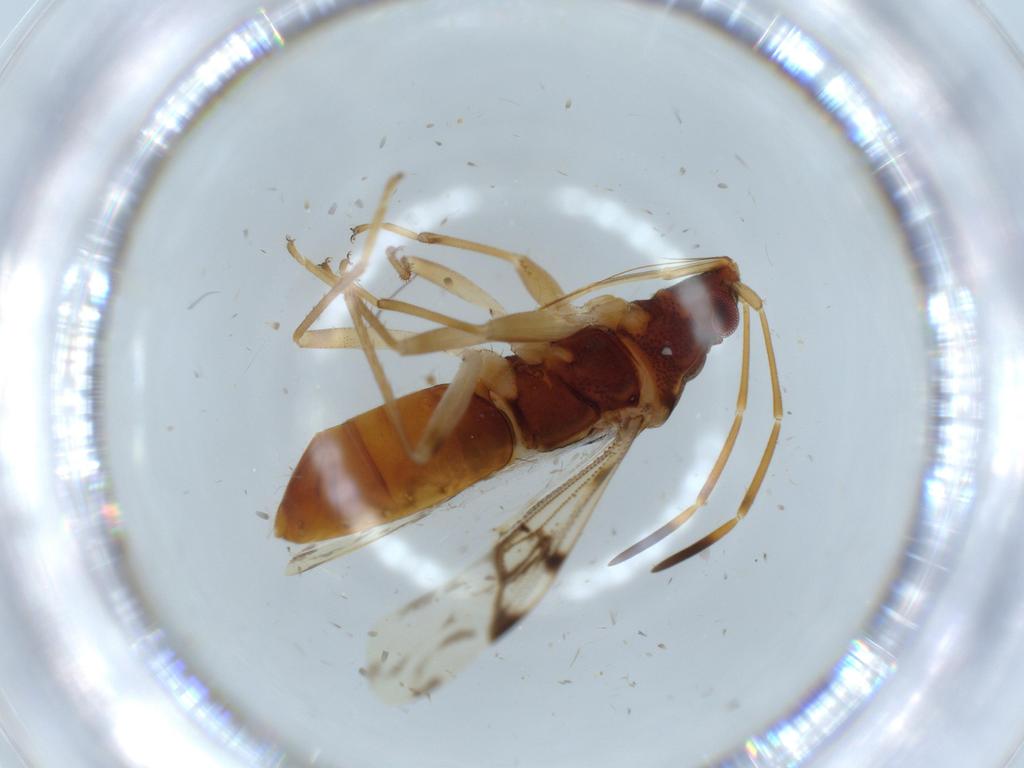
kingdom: Animalia
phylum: Arthropoda
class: Insecta
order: Hemiptera
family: Rhyparochromidae
